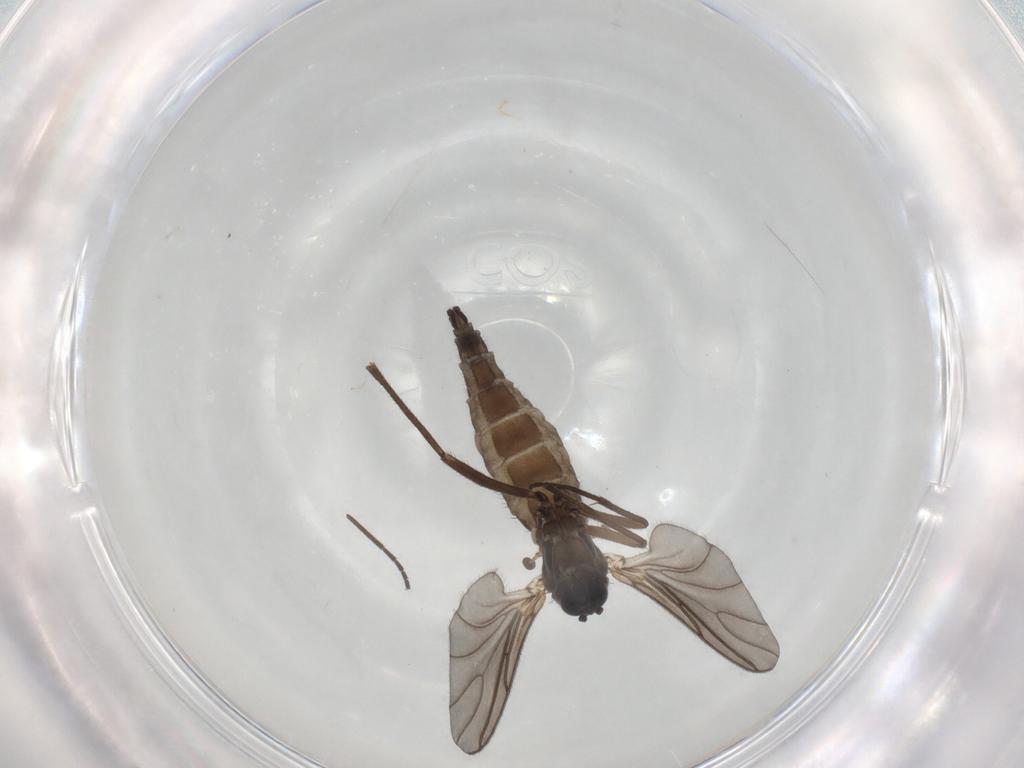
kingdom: Animalia
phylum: Arthropoda
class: Insecta
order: Diptera
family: Sciaridae
